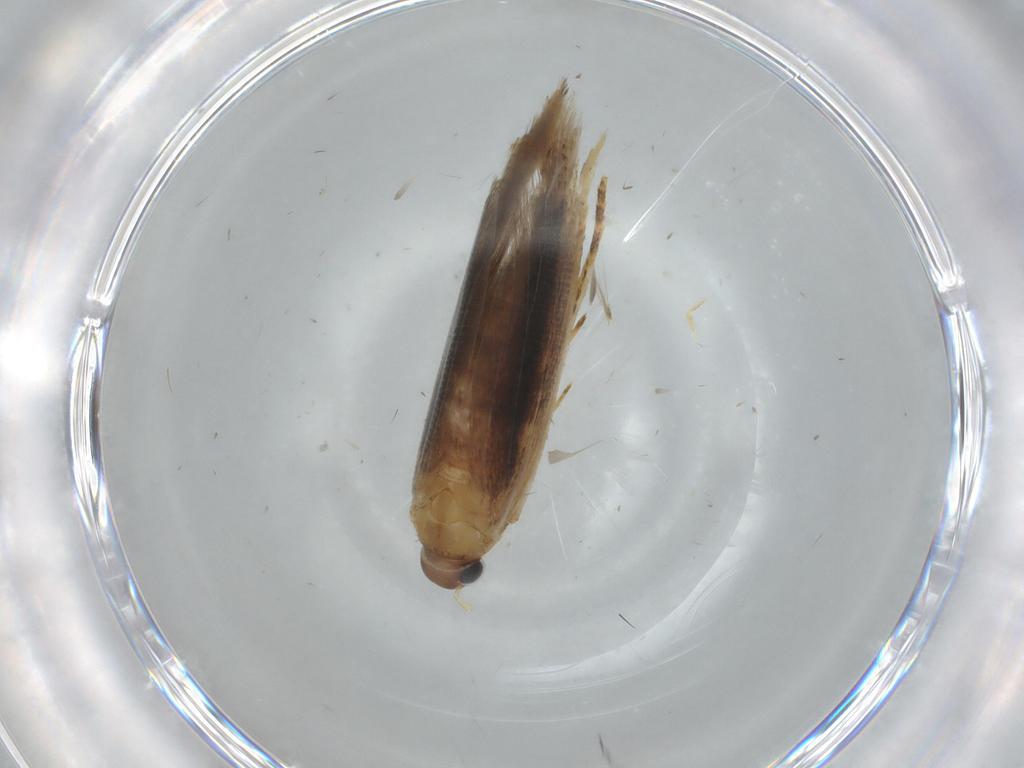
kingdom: Animalia
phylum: Arthropoda
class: Insecta
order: Lepidoptera
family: Gelechiidae
